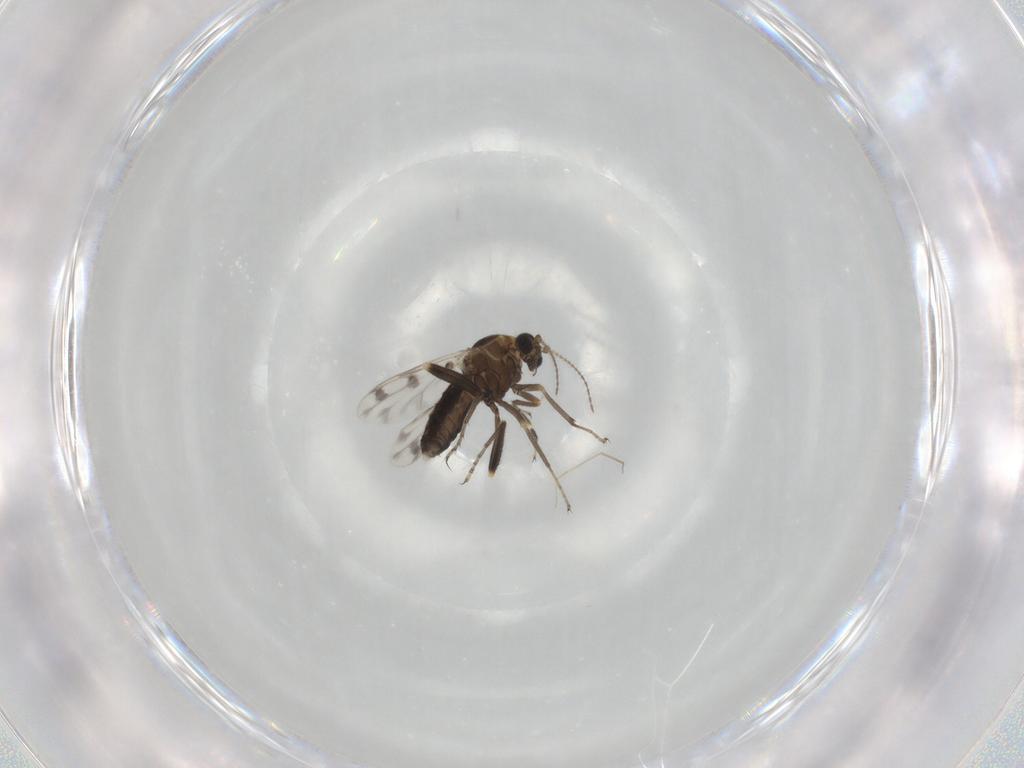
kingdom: Animalia
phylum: Arthropoda
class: Insecta
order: Diptera
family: Ceratopogonidae
